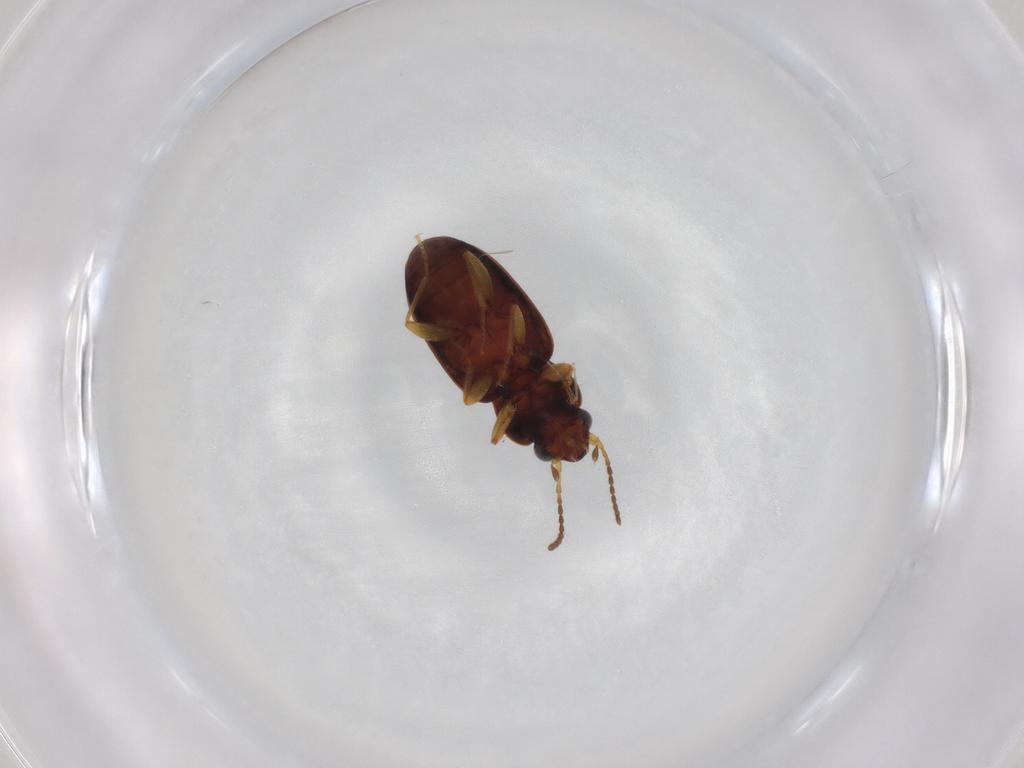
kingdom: Animalia
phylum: Arthropoda
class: Insecta
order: Coleoptera
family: Carabidae
